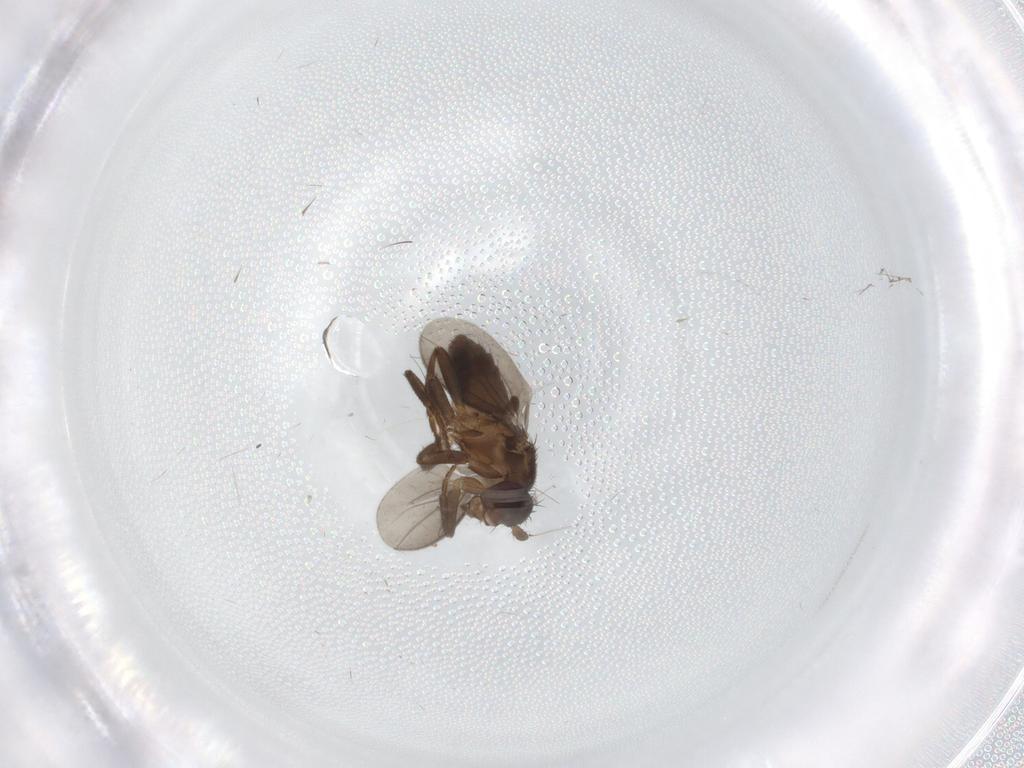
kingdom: Animalia
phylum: Arthropoda
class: Insecta
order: Diptera
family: Sphaeroceridae
